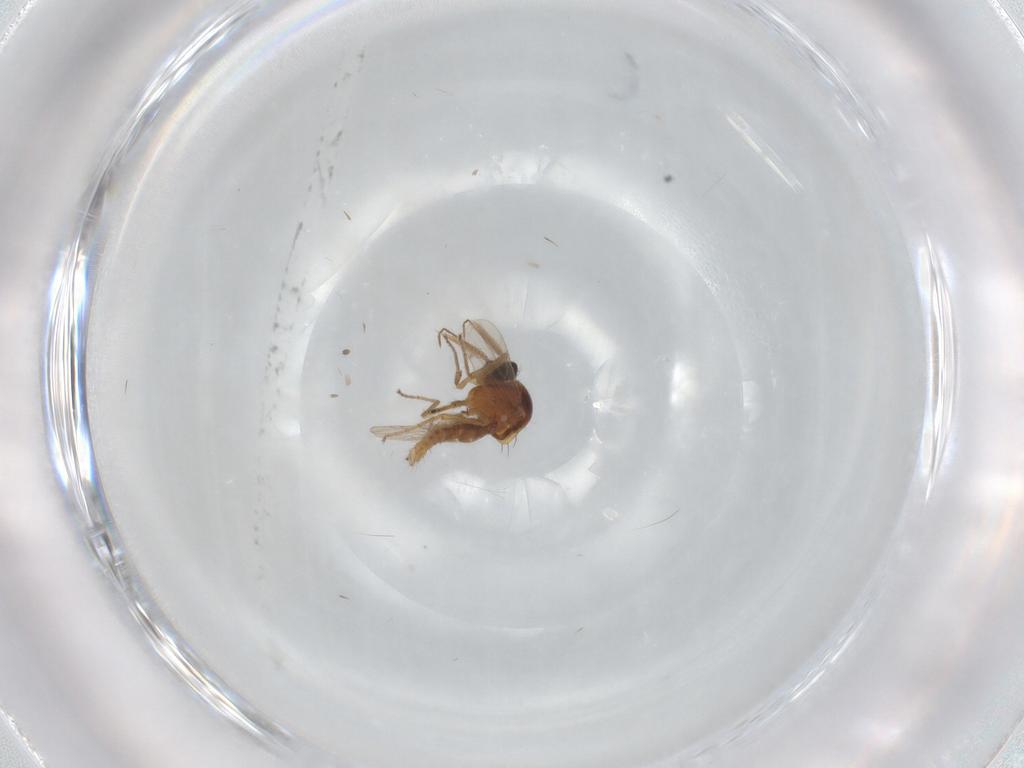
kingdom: Animalia
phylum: Arthropoda
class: Insecta
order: Diptera
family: Ceratopogonidae
